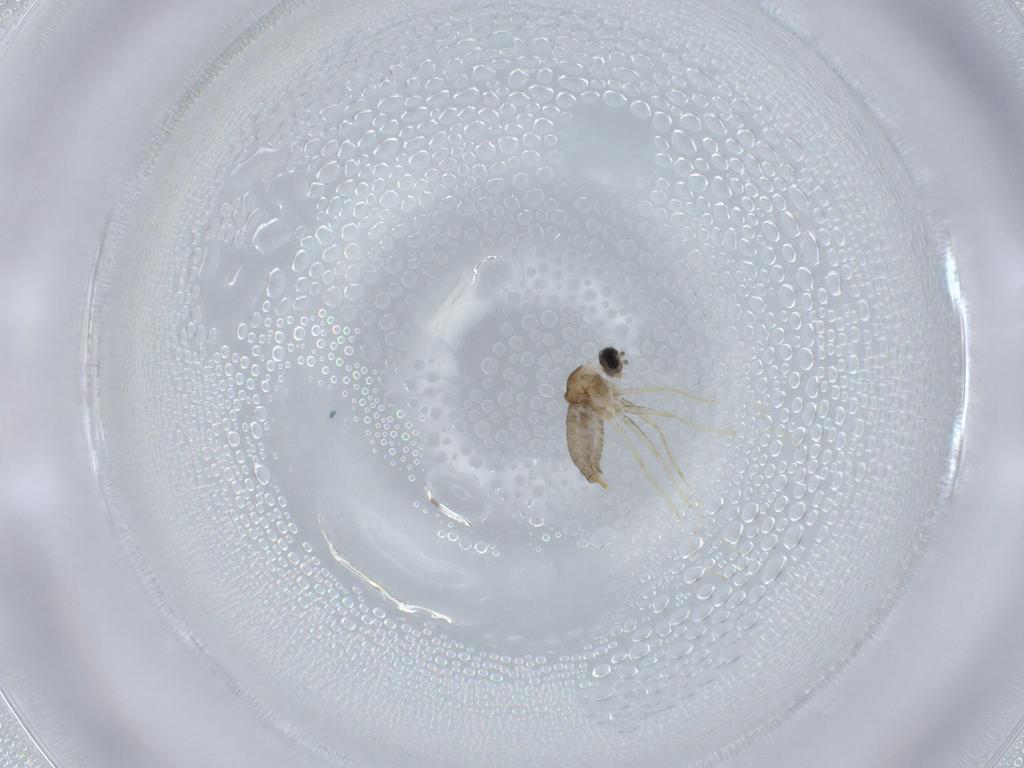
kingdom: Animalia
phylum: Arthropoda
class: Insecta
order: Diptera
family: Cecidomyiidae
